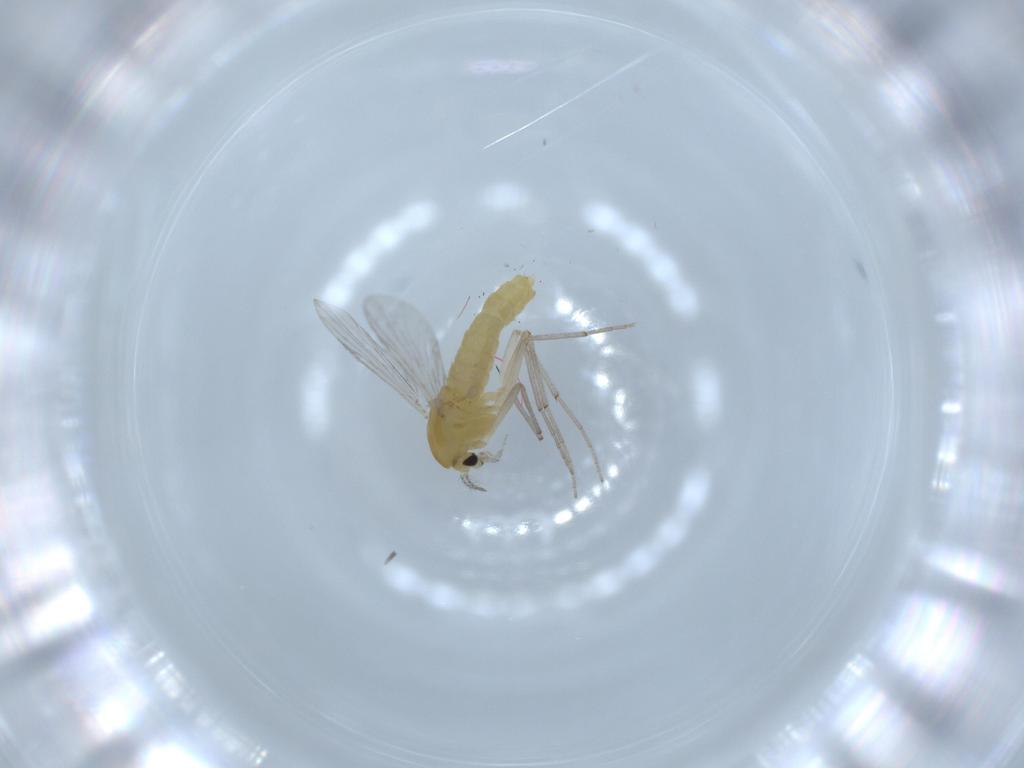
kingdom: Animalia
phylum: Arthropoda
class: Insecta
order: Diptera
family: Chironomidae
